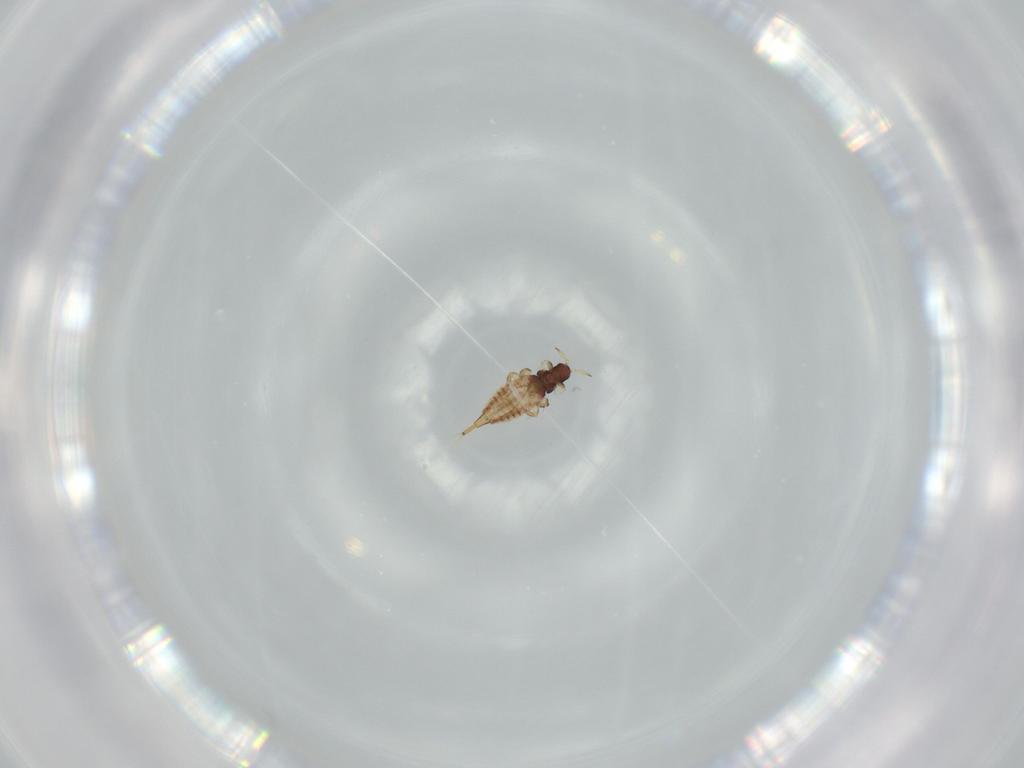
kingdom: Animalia
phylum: Arthropoda
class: Insecta
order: Thysanoptera
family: Phlaeothripidae
